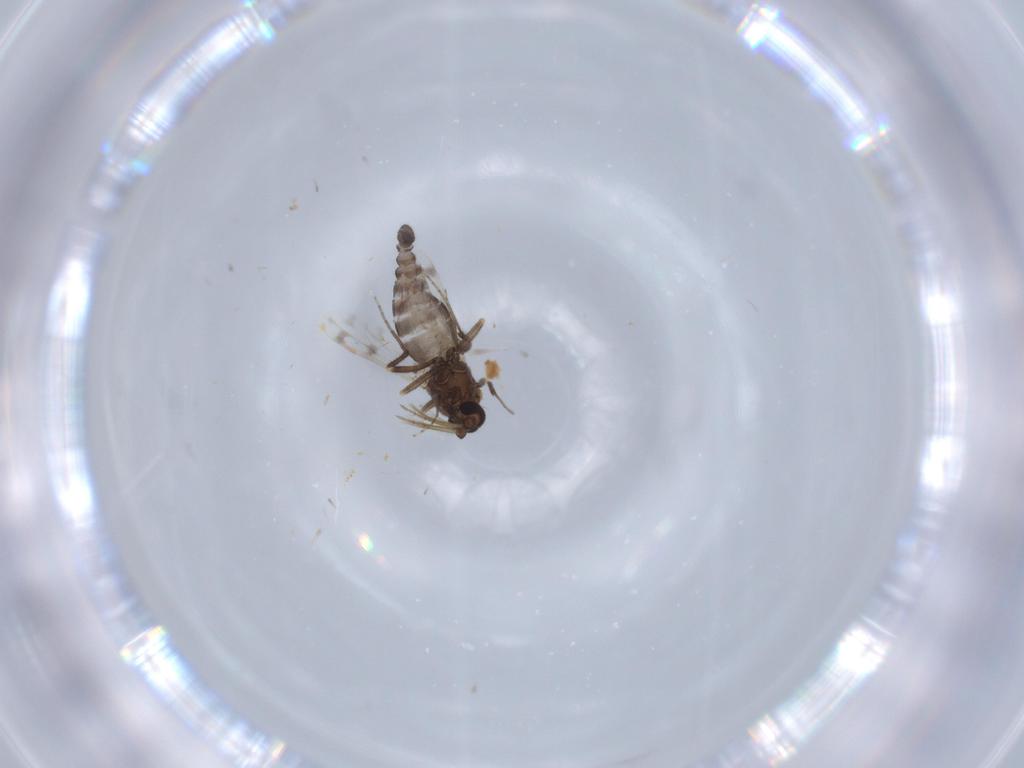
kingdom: Animalia
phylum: Arthropoda
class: Insecta
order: Diptera
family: Ceratopogonidae
